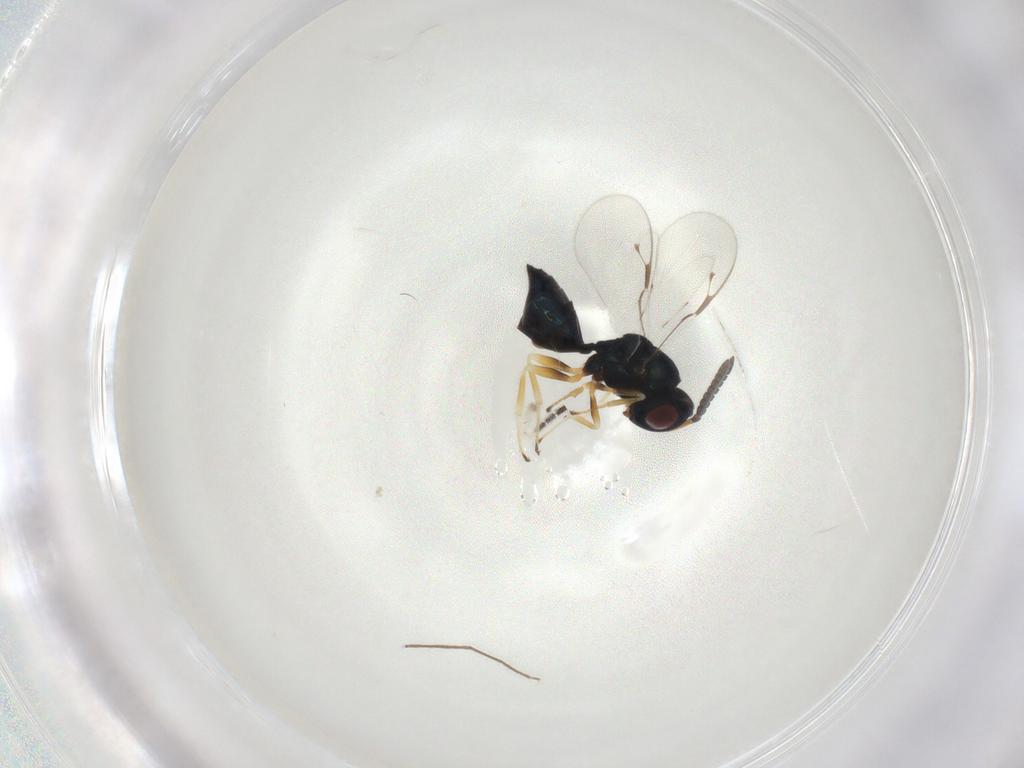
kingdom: Animalia
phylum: Arthropoda
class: Insecta
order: Hymenoptera
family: Pteromalidae
